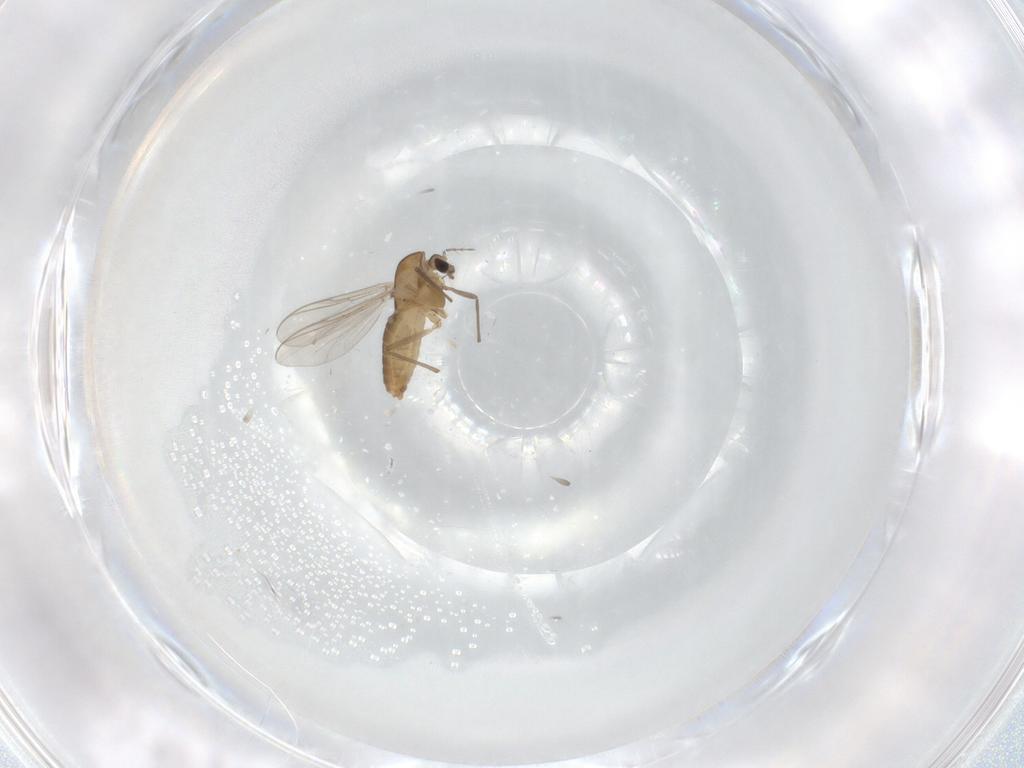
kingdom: Animalia
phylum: Arthropoda
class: Insecta
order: Diptera
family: Chironomidae
